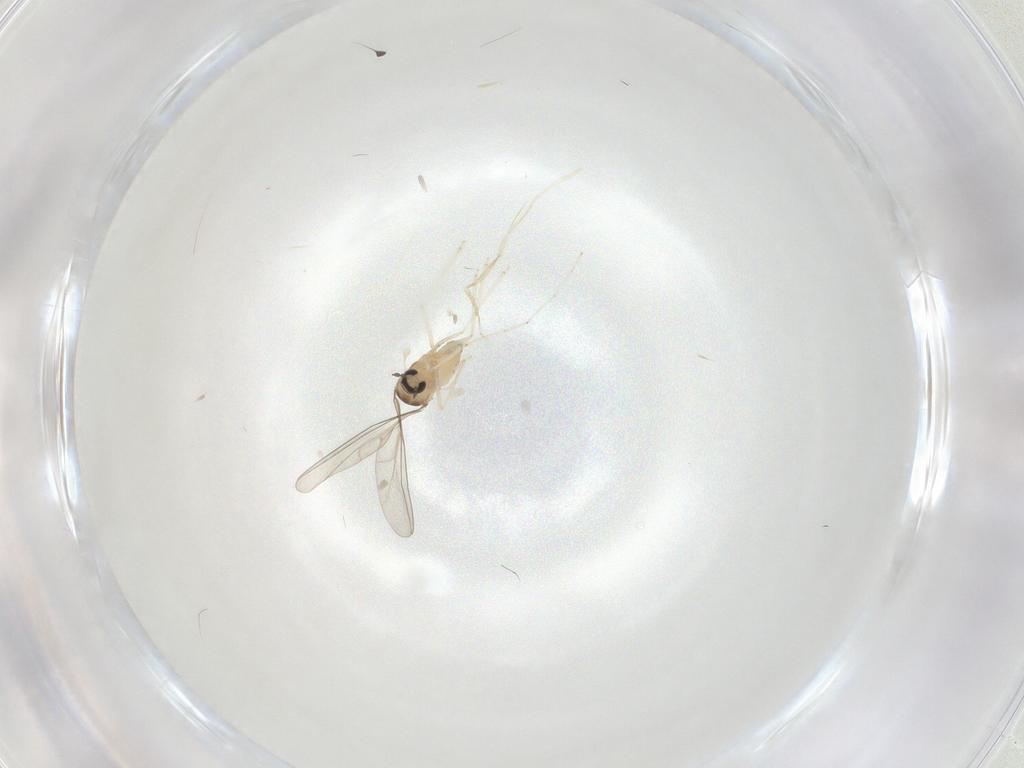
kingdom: Animalia
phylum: Arthropoda
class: Insecta
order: Diptera
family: Cecidomyiidae
